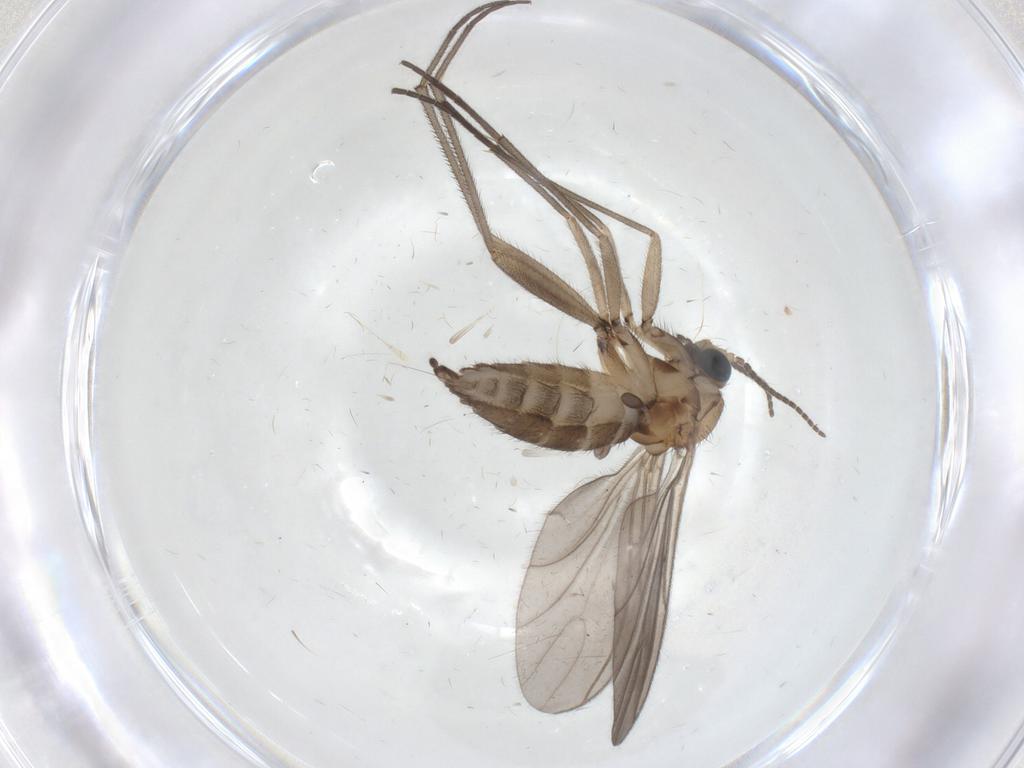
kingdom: Animalia
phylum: Arthropoda
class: Insecta
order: Diptera
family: Sciaridae
